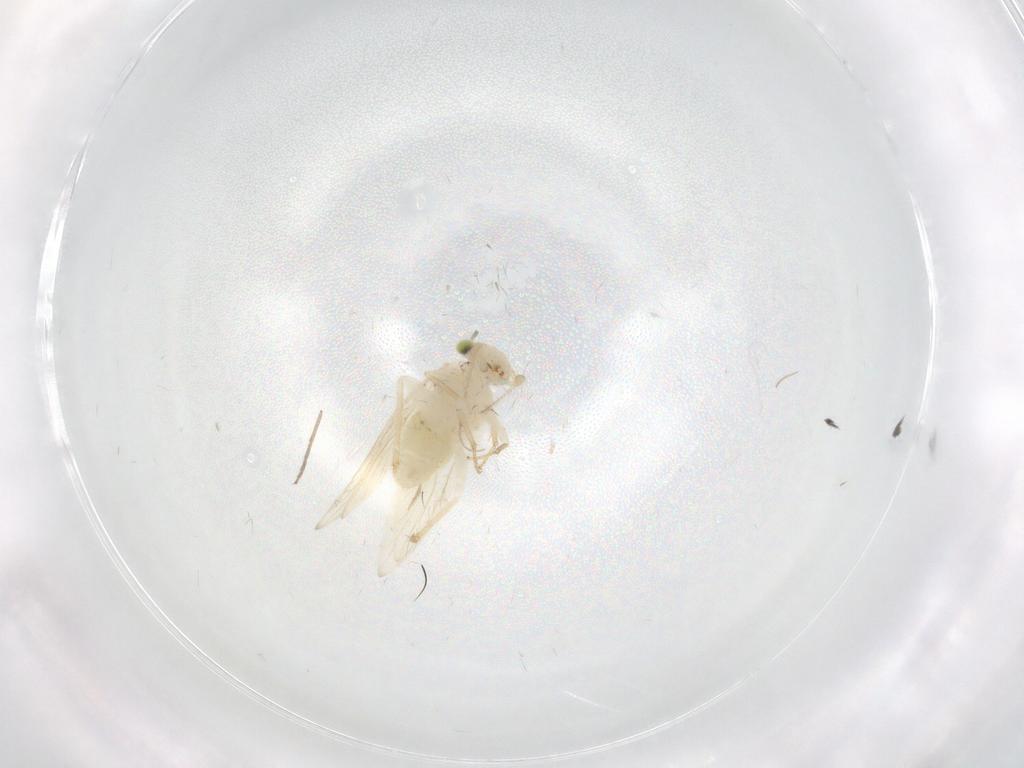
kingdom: Animalia
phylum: Arthropoda
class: Insecta
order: Psocodea
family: Lepidopsocidae
